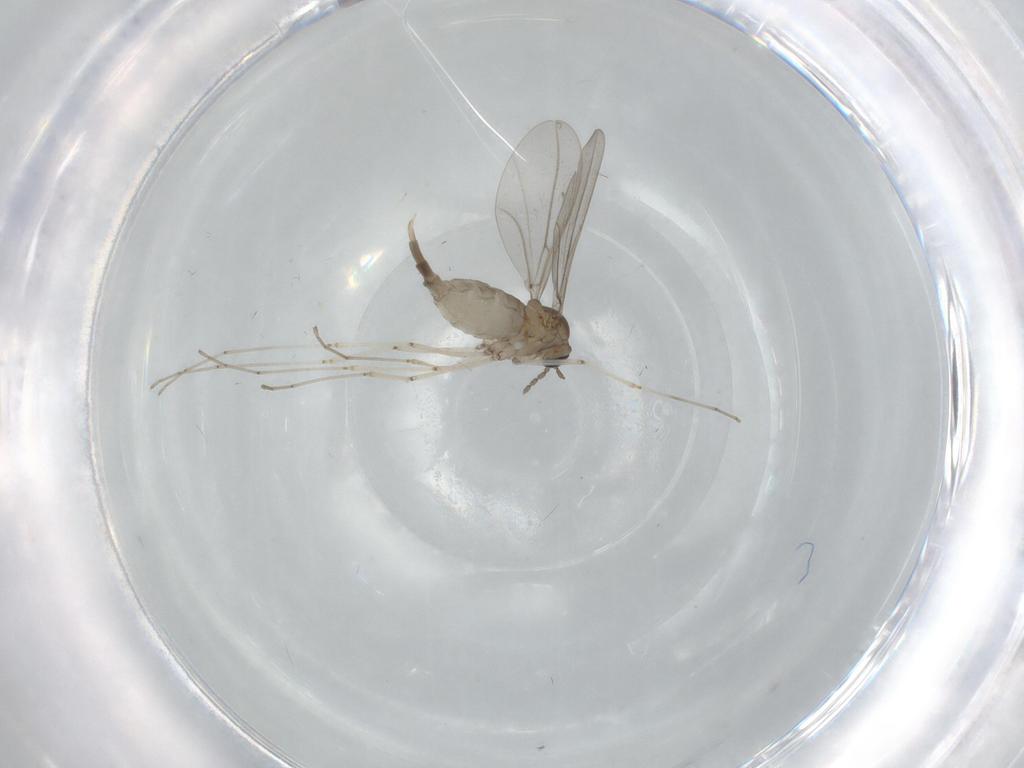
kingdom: Animalia
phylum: Arthropoda
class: Insecta
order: Diptera
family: Cecidomyiidae
